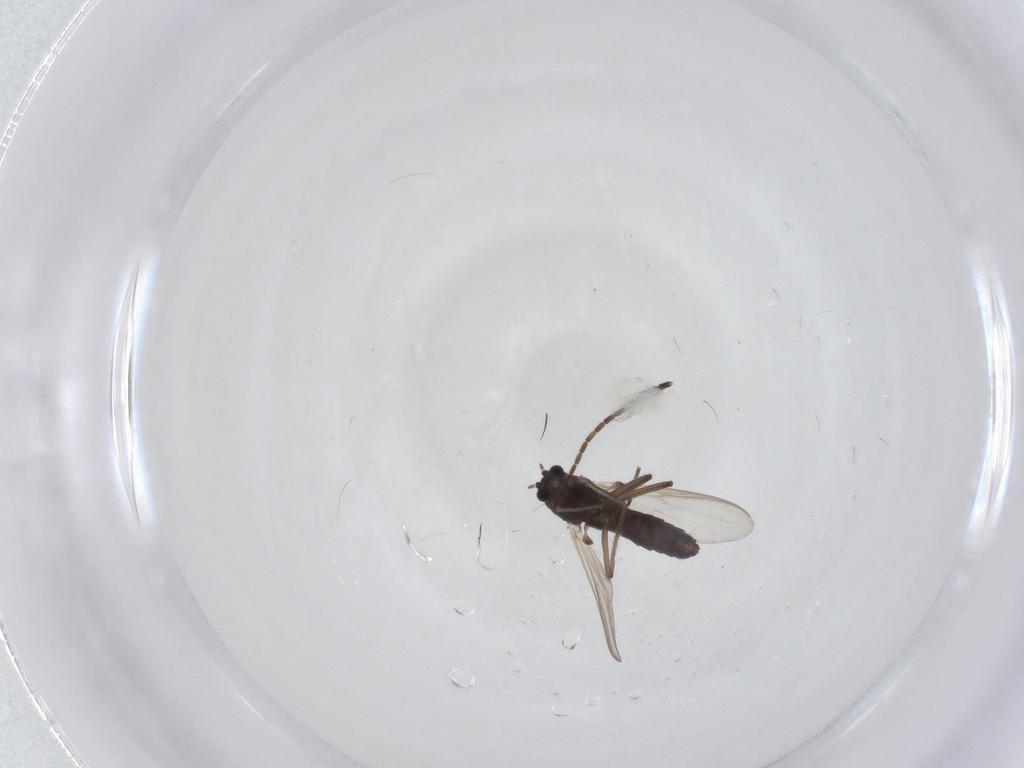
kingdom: Animalia
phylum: Arthropoda
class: Insecta
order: Diptera
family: Sciaridae
